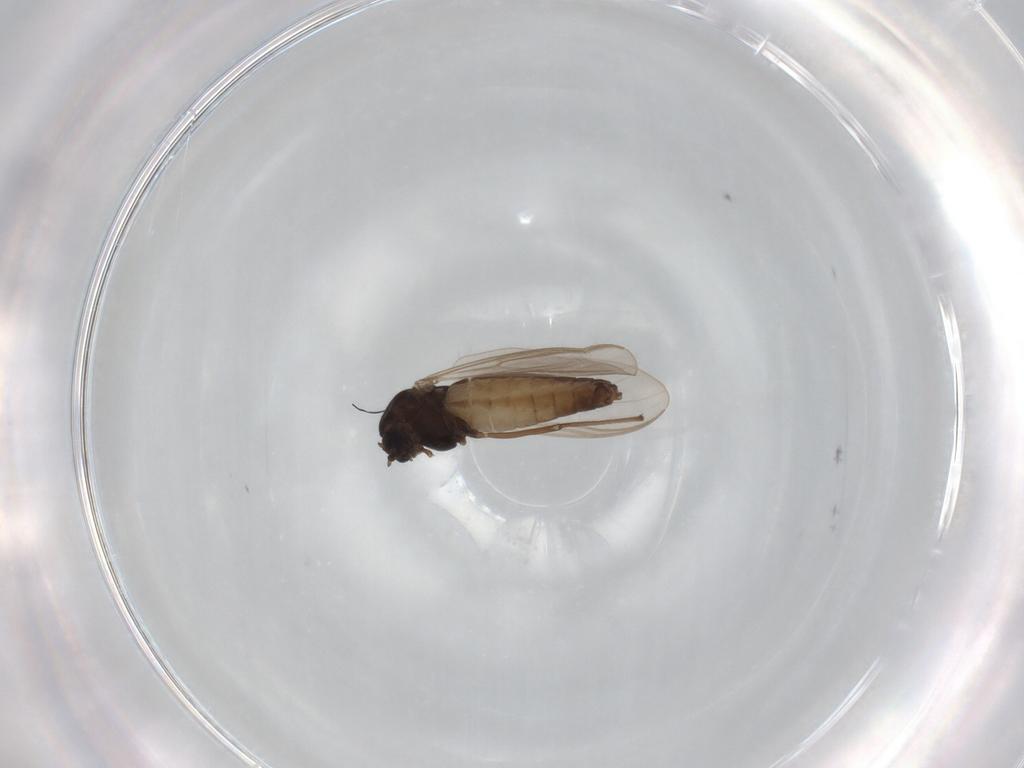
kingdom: Animalia
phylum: Arthropoda
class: Insecta
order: Diptera
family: Chironomidae
